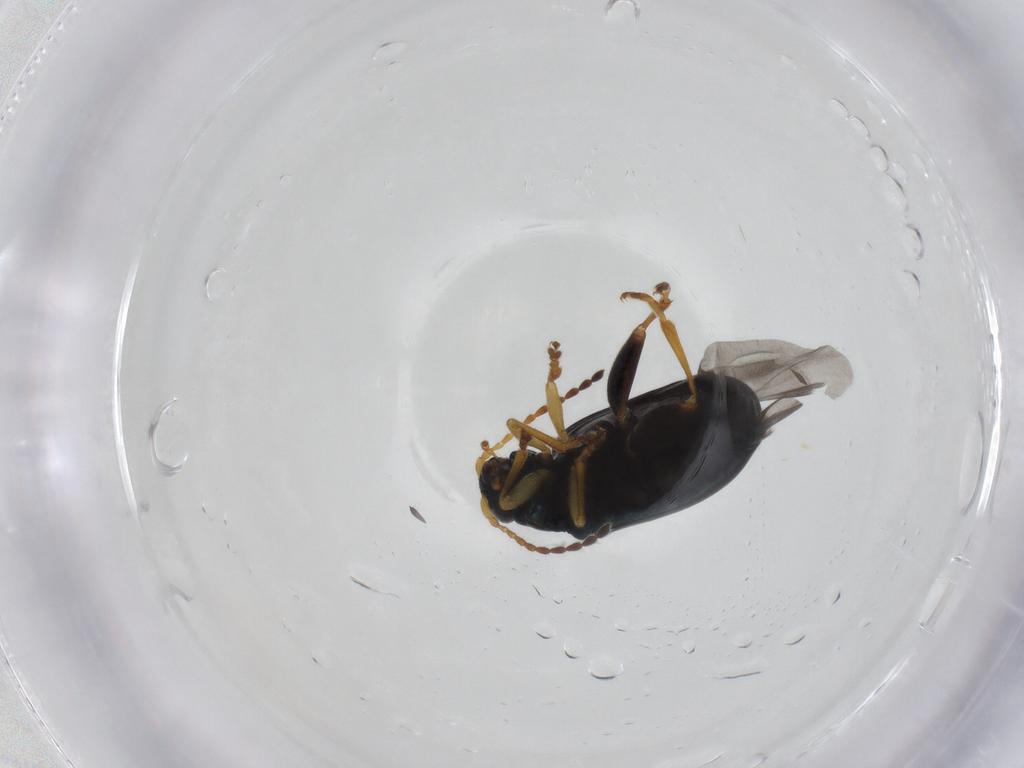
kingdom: Animalia
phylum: Arthropoda
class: Insecta
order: Coleoptera
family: Chrysomelidae
